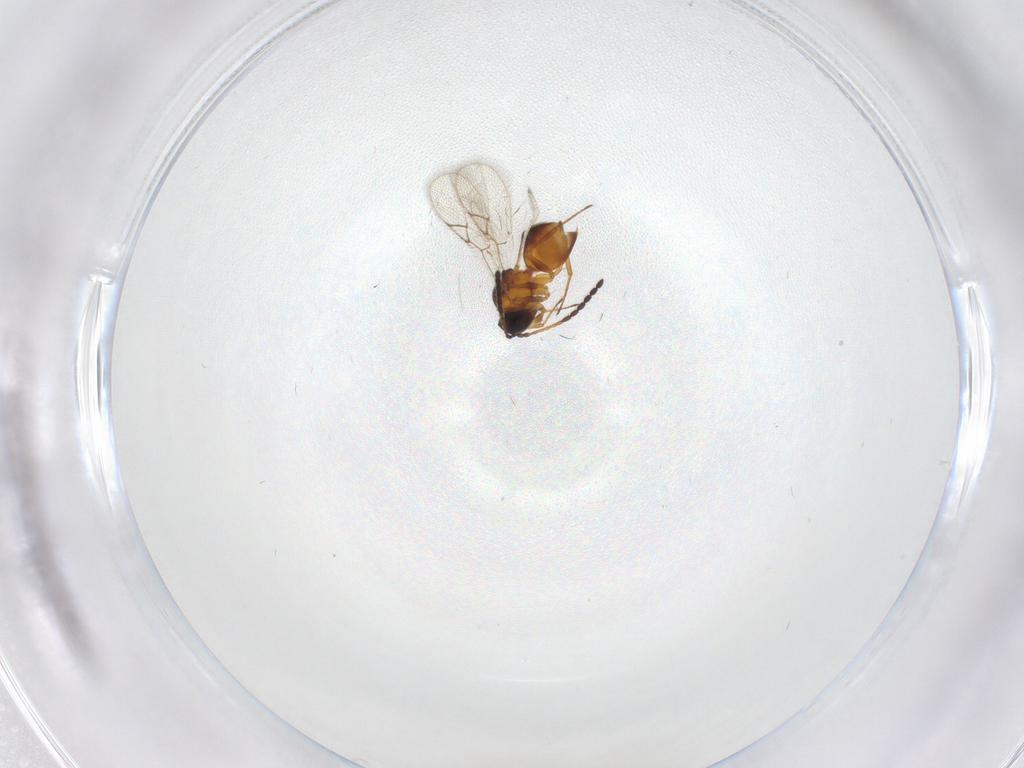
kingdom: Animalia
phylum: Arthropoda
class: Insecta
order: Hymenoptera
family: Figitidae
